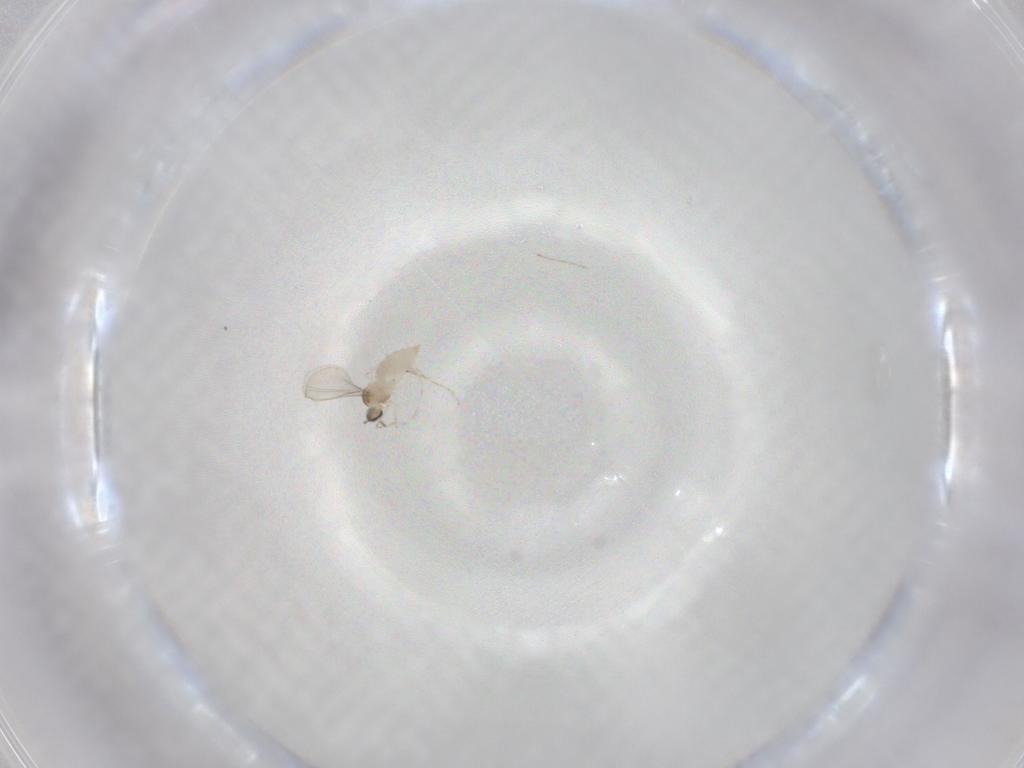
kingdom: Animalia
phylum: Arthropoda
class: Insecta
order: Diptera
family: Cecidomyiidae
